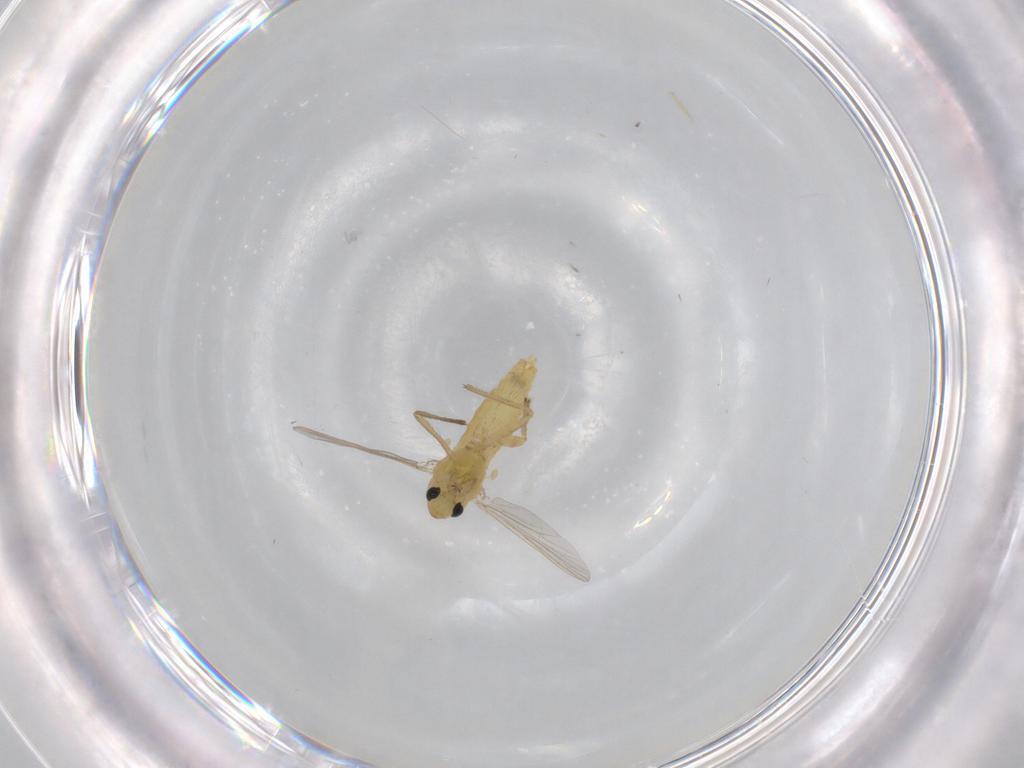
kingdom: Animalia
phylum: Arthropoda
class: Insecta
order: Diptera
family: Chironomidae
